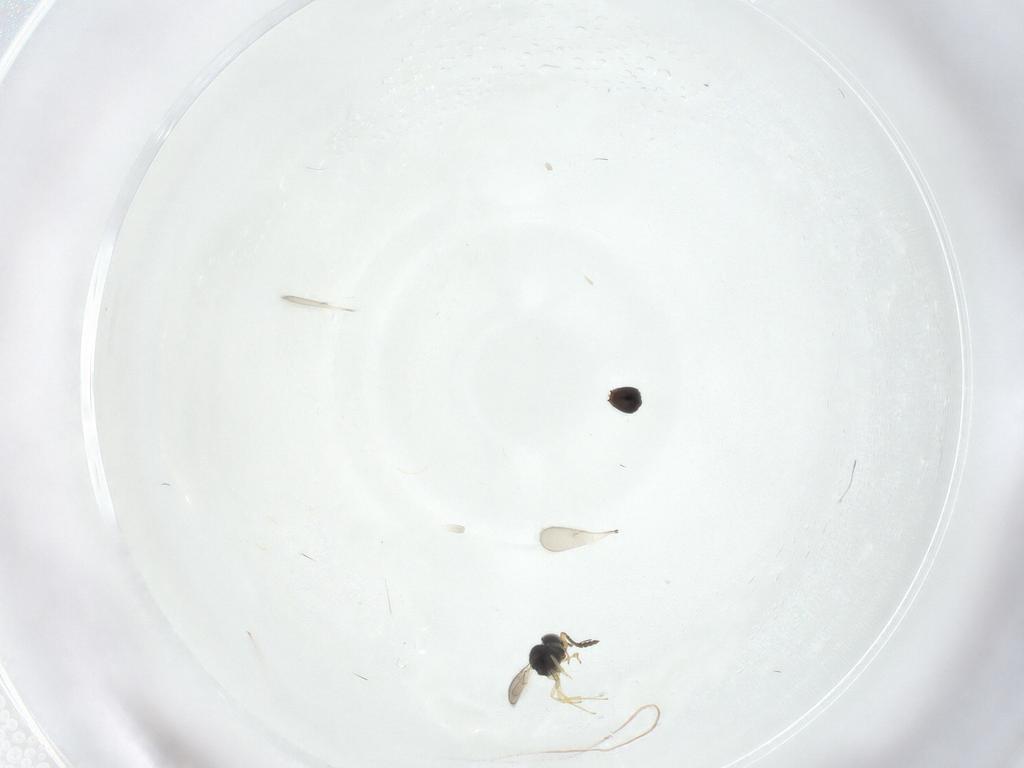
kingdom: Animalia
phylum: Arthropoda
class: Insecta
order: Hymenoptera
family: Scelionidae
